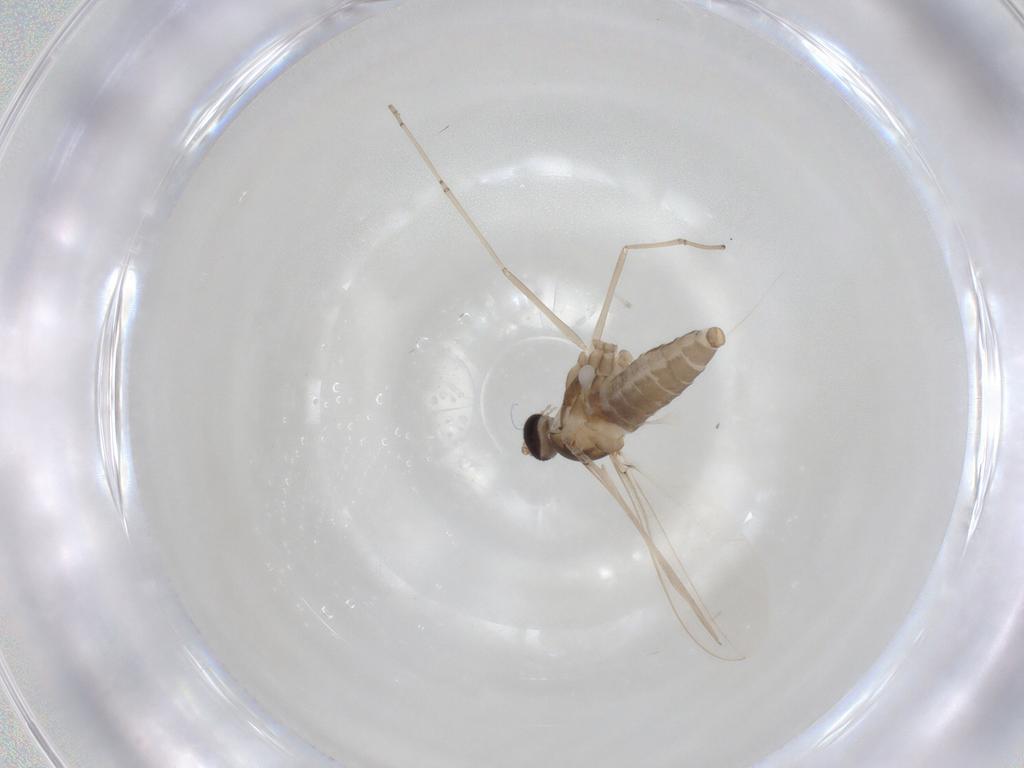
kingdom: Animalia
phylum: Arthropoda
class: Insecta
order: Diptera
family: Cecidomyiidae
